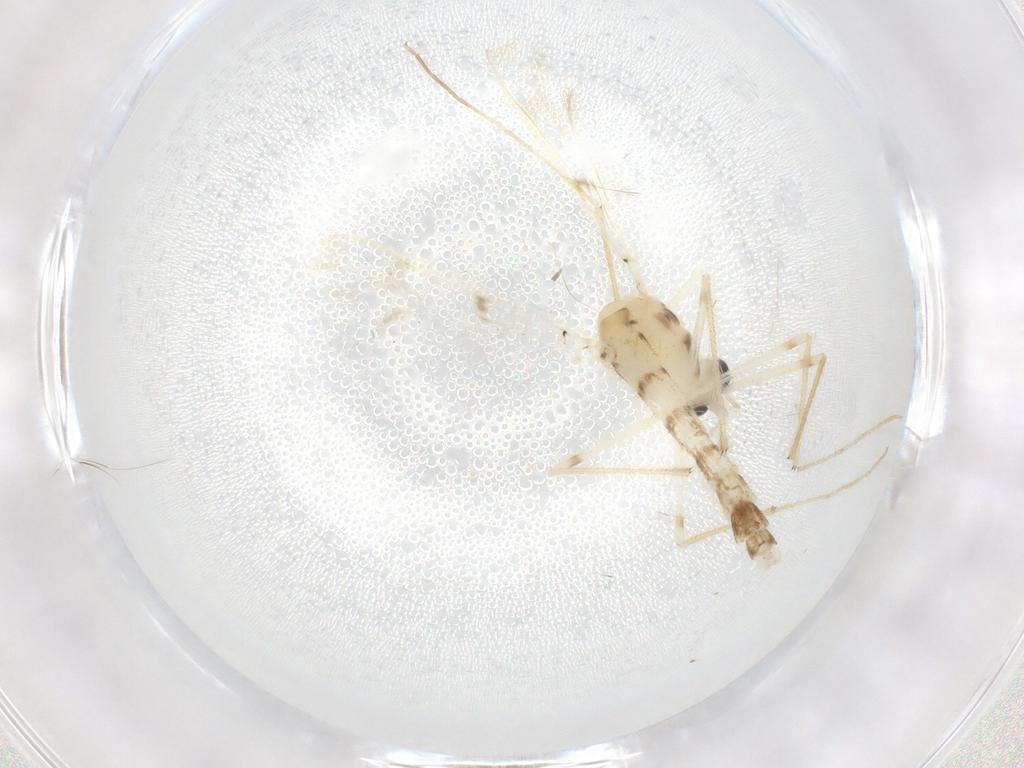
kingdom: Animalia
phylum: Arthropoda
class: Insecta
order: Diptera
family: Chironomidae
